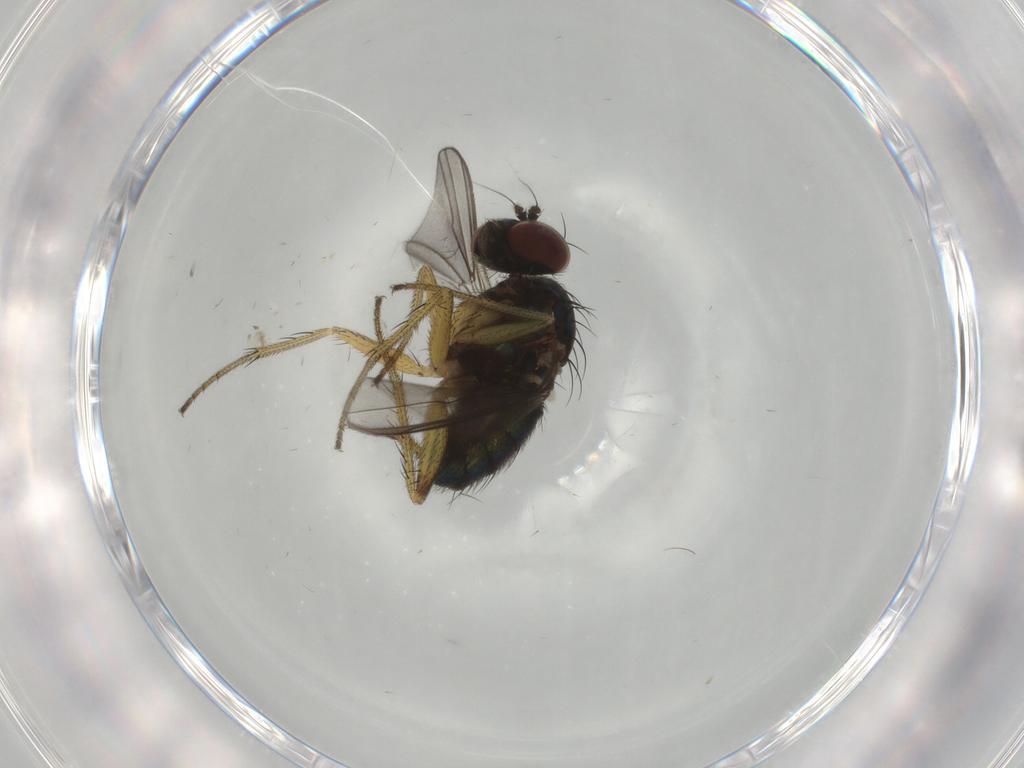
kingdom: Animalia
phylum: Arthropoda
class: Insecta
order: Diptera
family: Dolichopodidae
